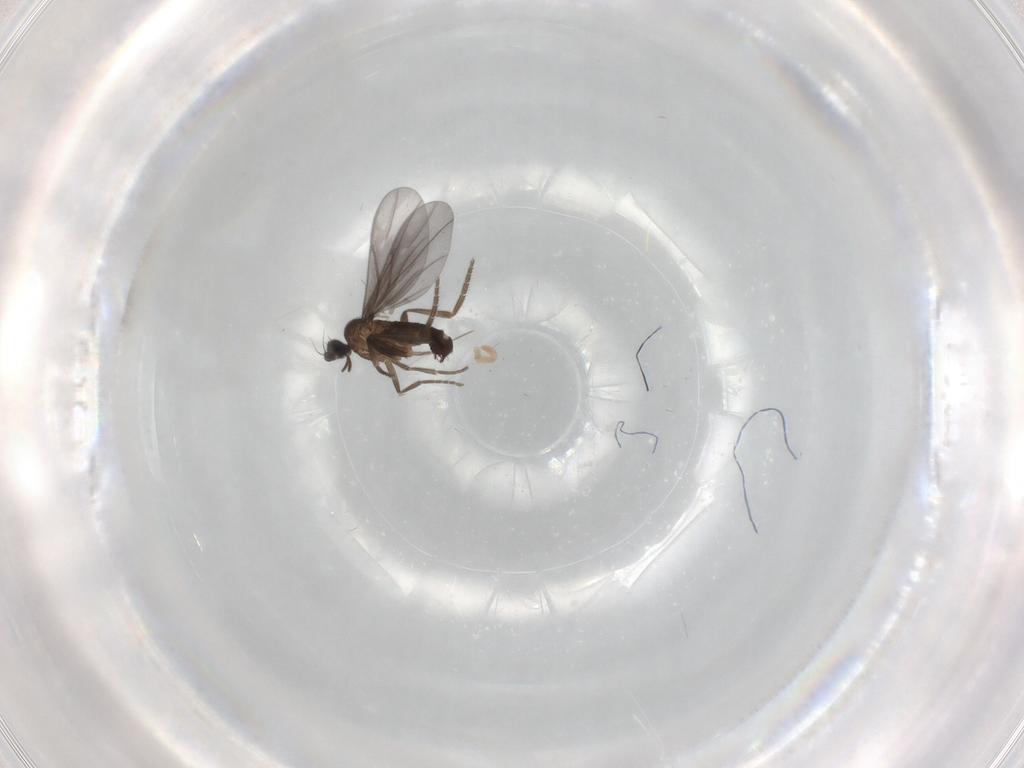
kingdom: Animalia
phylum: Arthropoda
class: Insecta
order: Diptera
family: Phoridae
